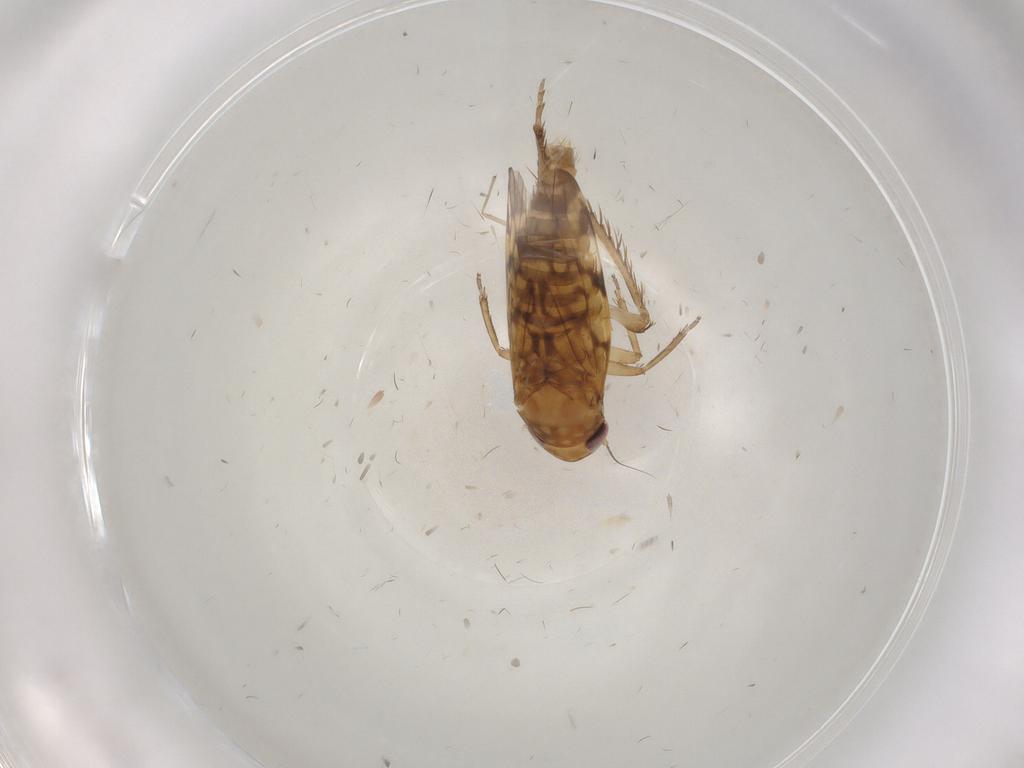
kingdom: Animalia
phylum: Arthropoda
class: Insecta
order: Hemiptera
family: Cicadellidae
